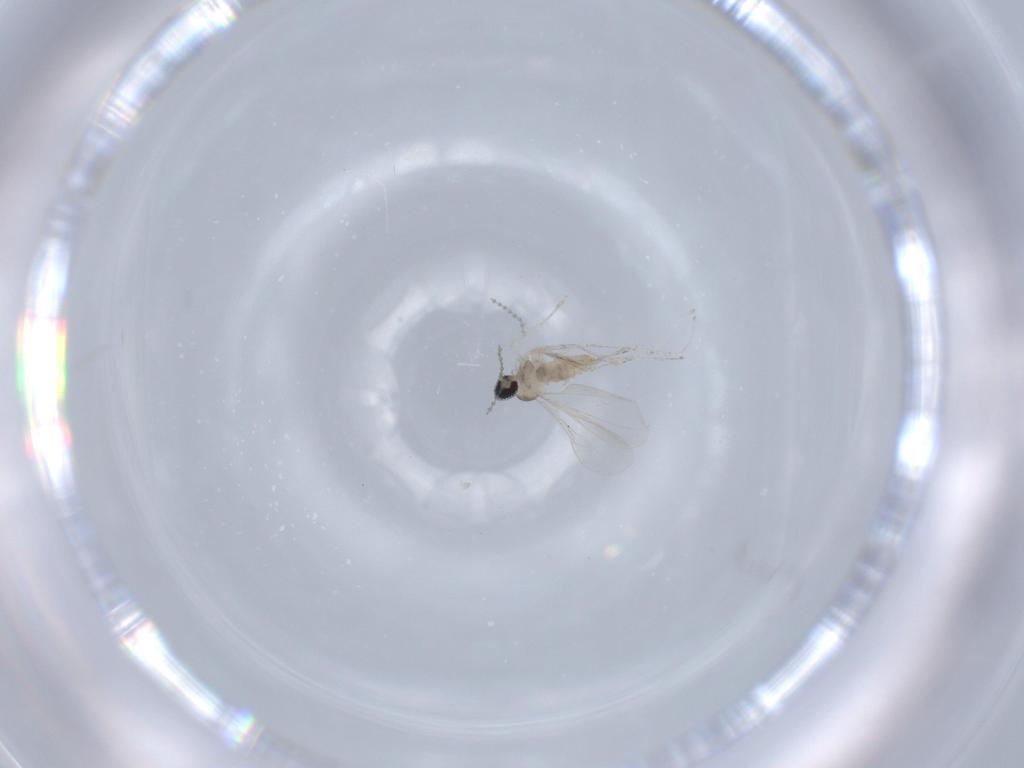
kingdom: Animalia
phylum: Arthropoda
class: Insecta
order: Diptera
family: Cecidomyiidae
